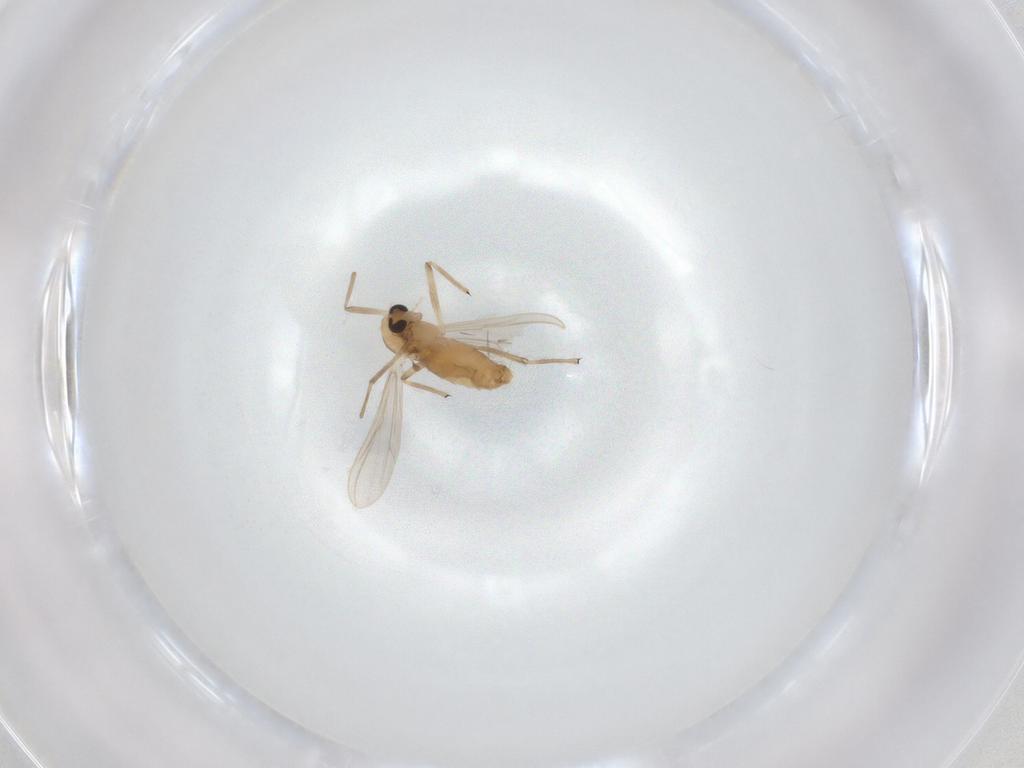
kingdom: Animalia
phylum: Arthropoda
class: Insecta
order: Diptera
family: Chironomidae
